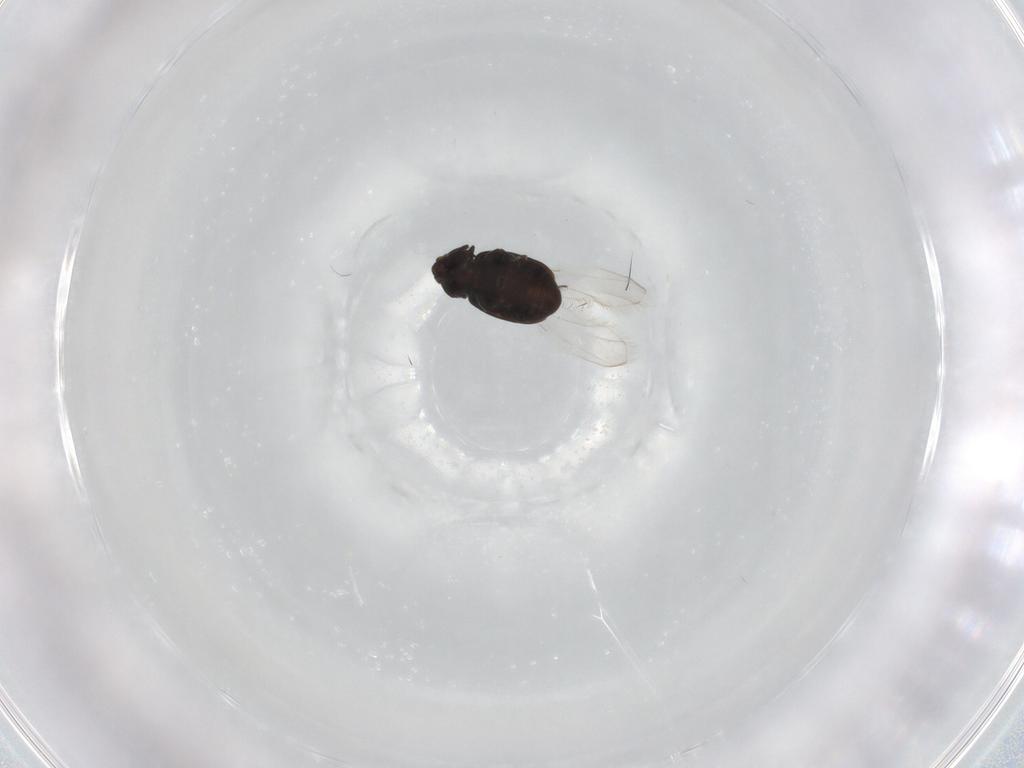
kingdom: Animalia
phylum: Arthropoda
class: Insecta
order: Coleoptera
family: Corylophidae
